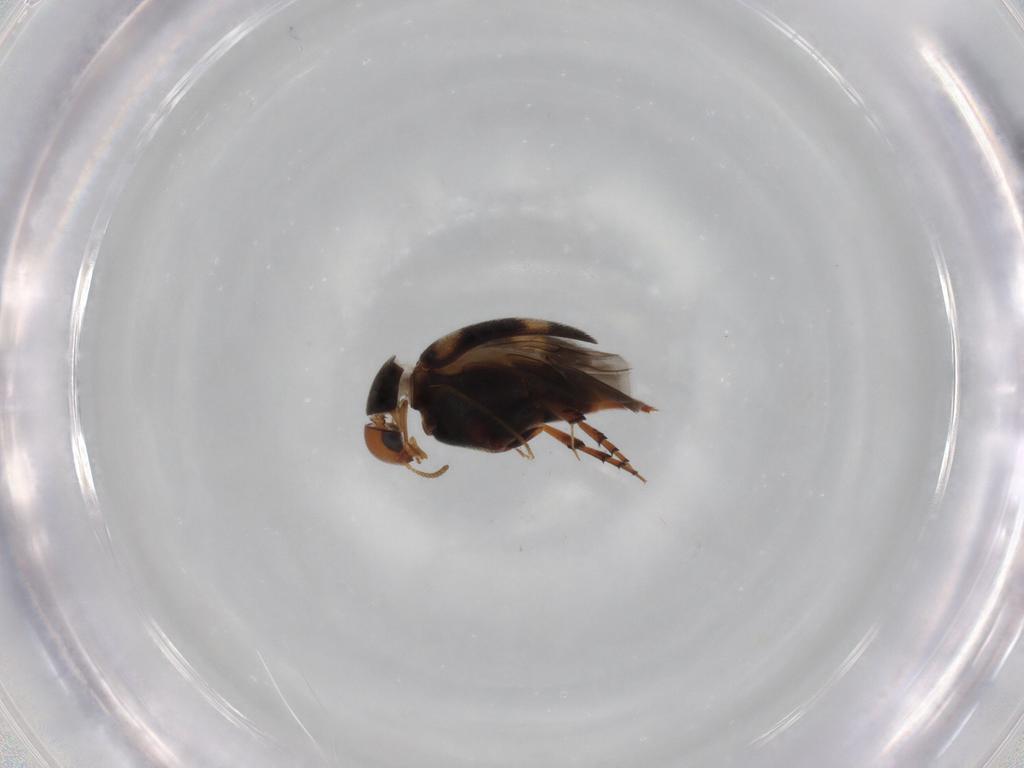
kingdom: Animalia
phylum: Arthropoda
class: Insecta
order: Coleoptera
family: Mordellidae
